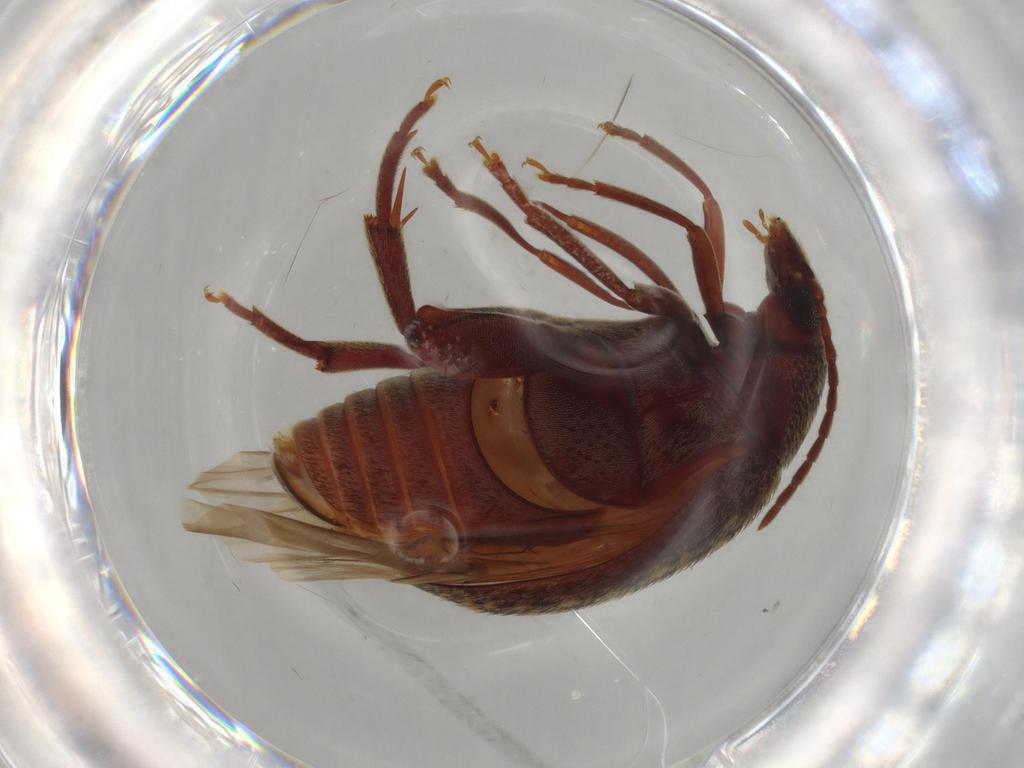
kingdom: Animalia
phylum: Arthropoda
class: Insecta
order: Coleoptera
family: Chrysomelidae
